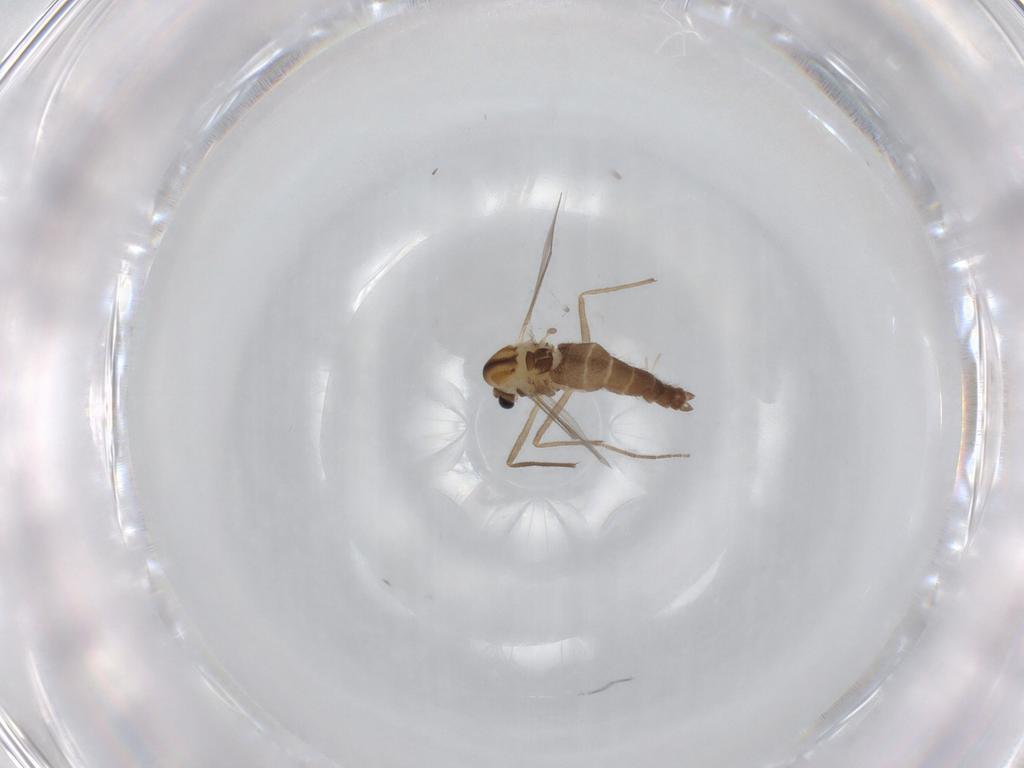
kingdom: Animalia
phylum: Arthropoda
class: Insecta
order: Diptera
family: Chironomidae
